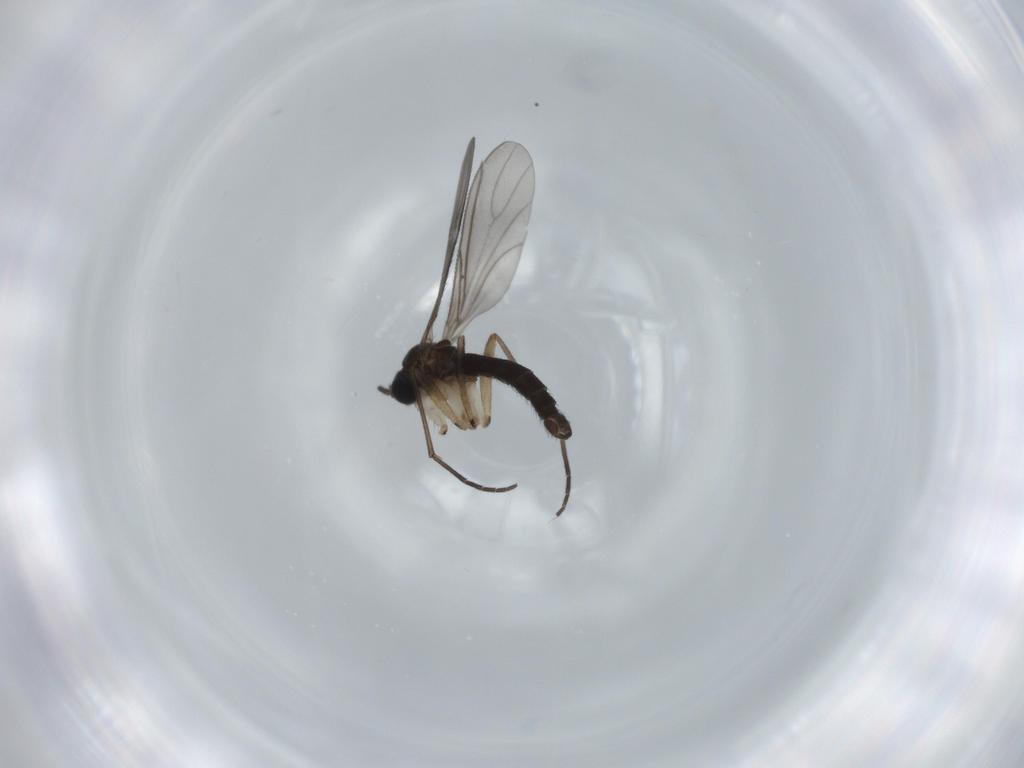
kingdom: Animalia
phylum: Arthropoda
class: Insecta
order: Diptera
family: Sciaridae
